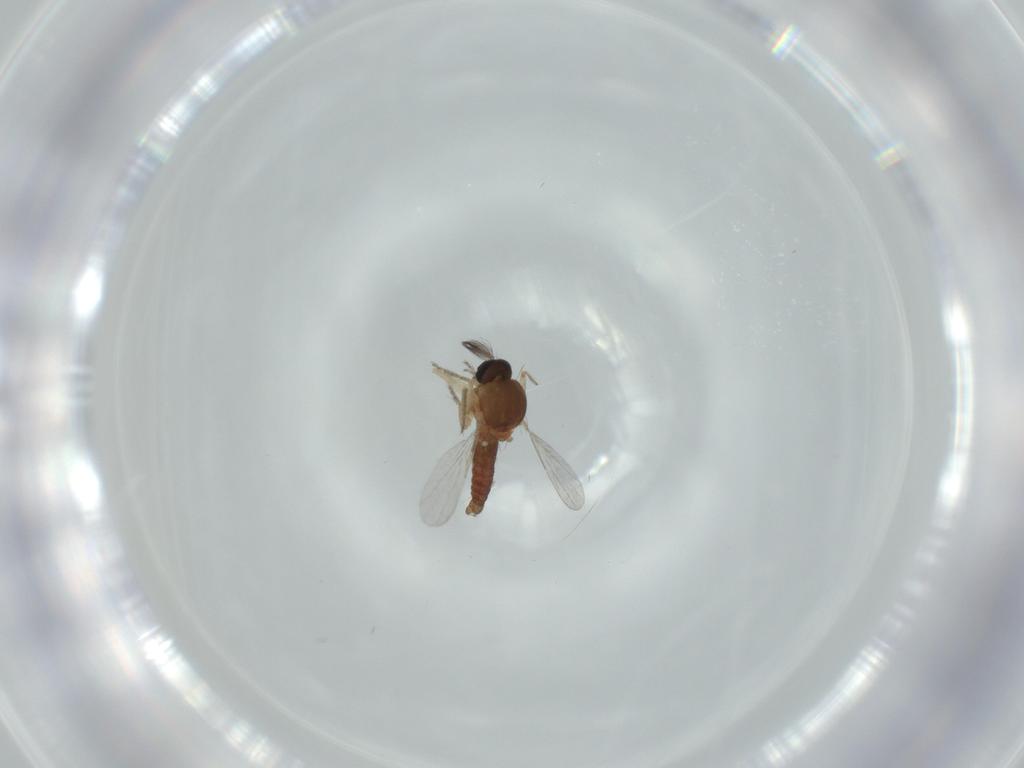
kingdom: Animalia
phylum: Arthropoda
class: Insecta
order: Diptera
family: Ceratopogonidae
